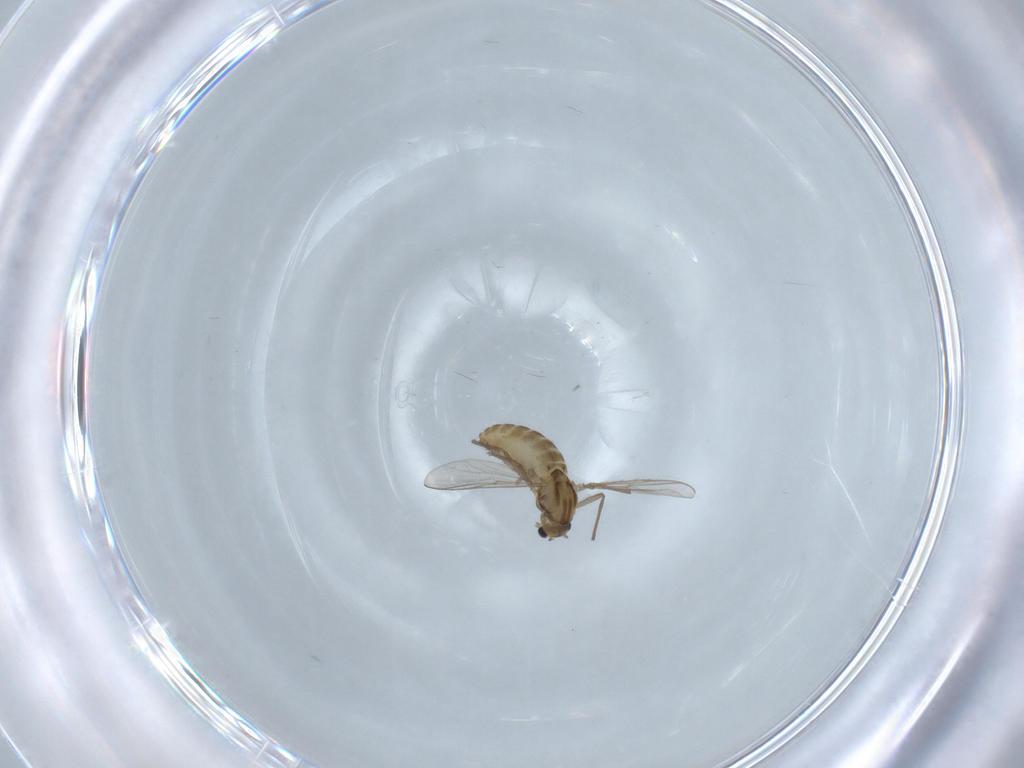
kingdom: Animalia
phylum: Arthropoda
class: Insecta
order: Diptera
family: Chironomidae
